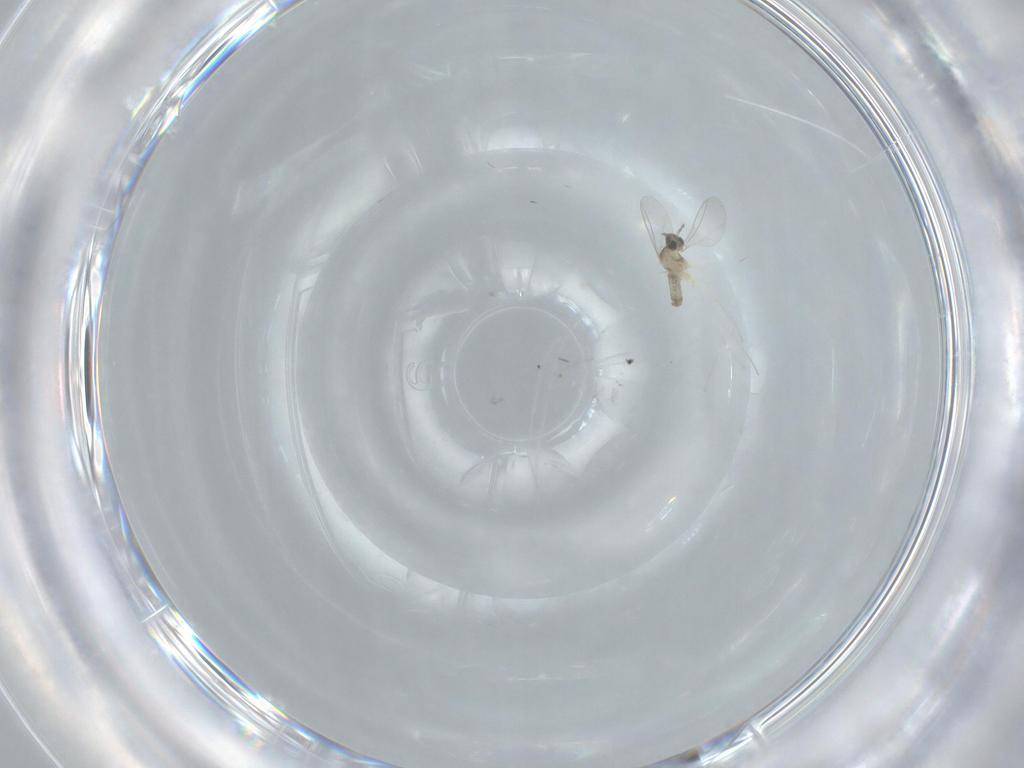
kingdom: Animalia
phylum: Arthropoda
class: Insecta
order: Diptera
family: Cecidomyiidae
